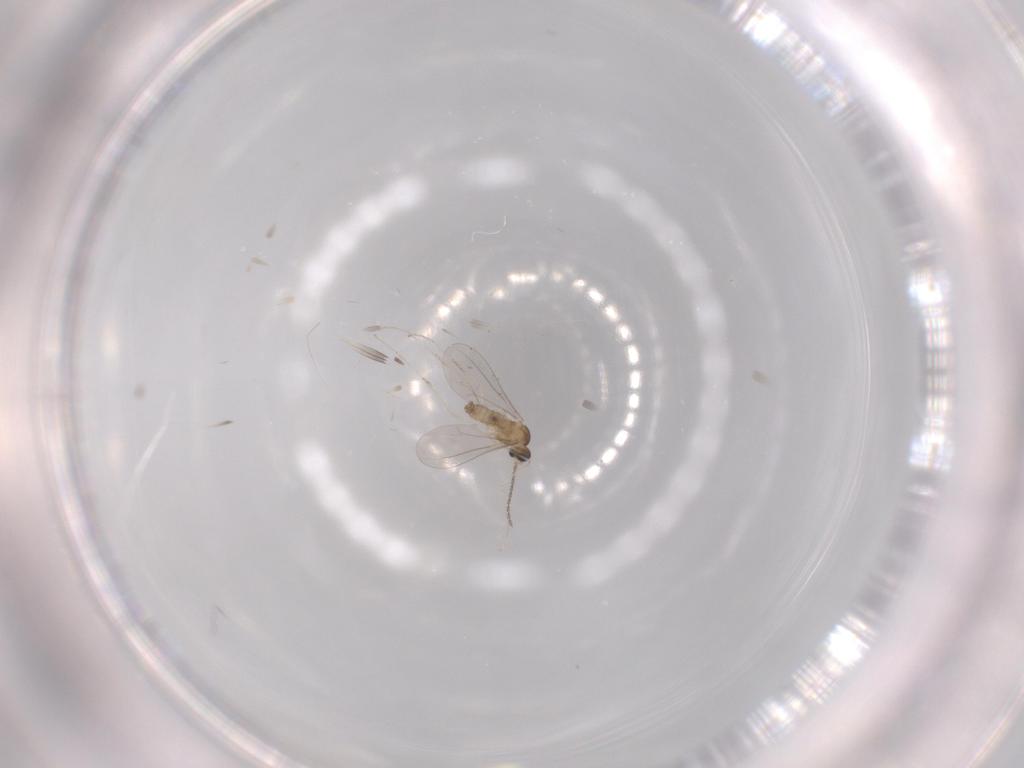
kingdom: Animalia
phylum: Arthropoda
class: Insecta
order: Diptera
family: Cecidomyiidae
